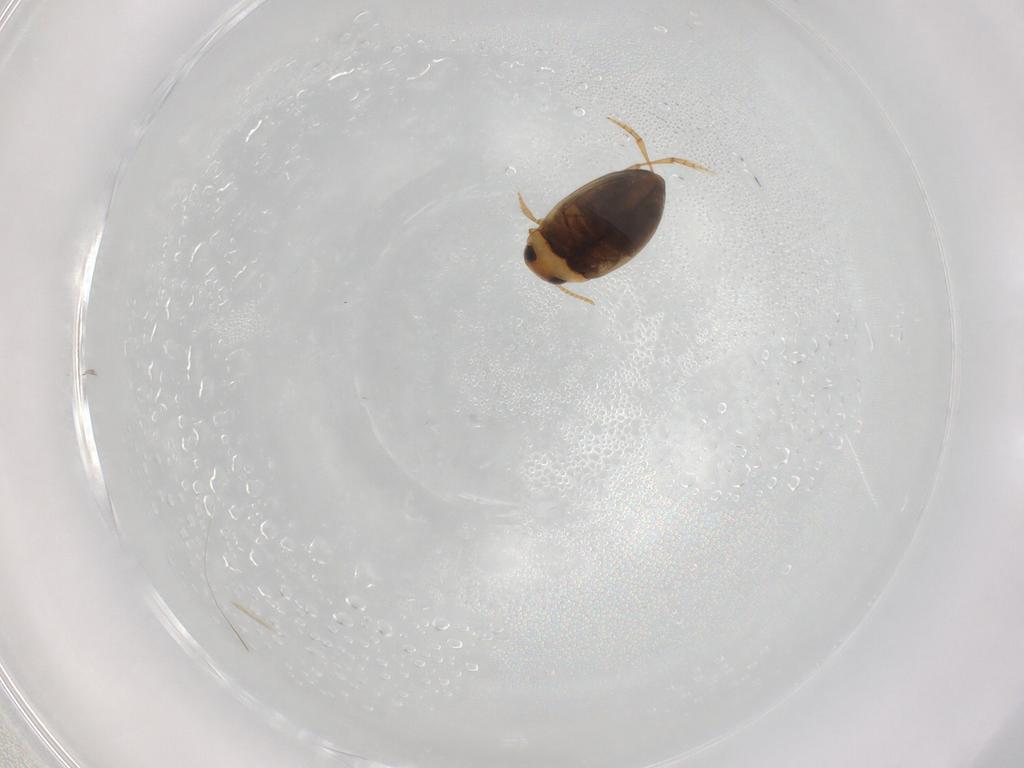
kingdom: Animalia
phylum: Arthropoda
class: Insecta
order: Coleoptera
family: Dytiscidae
